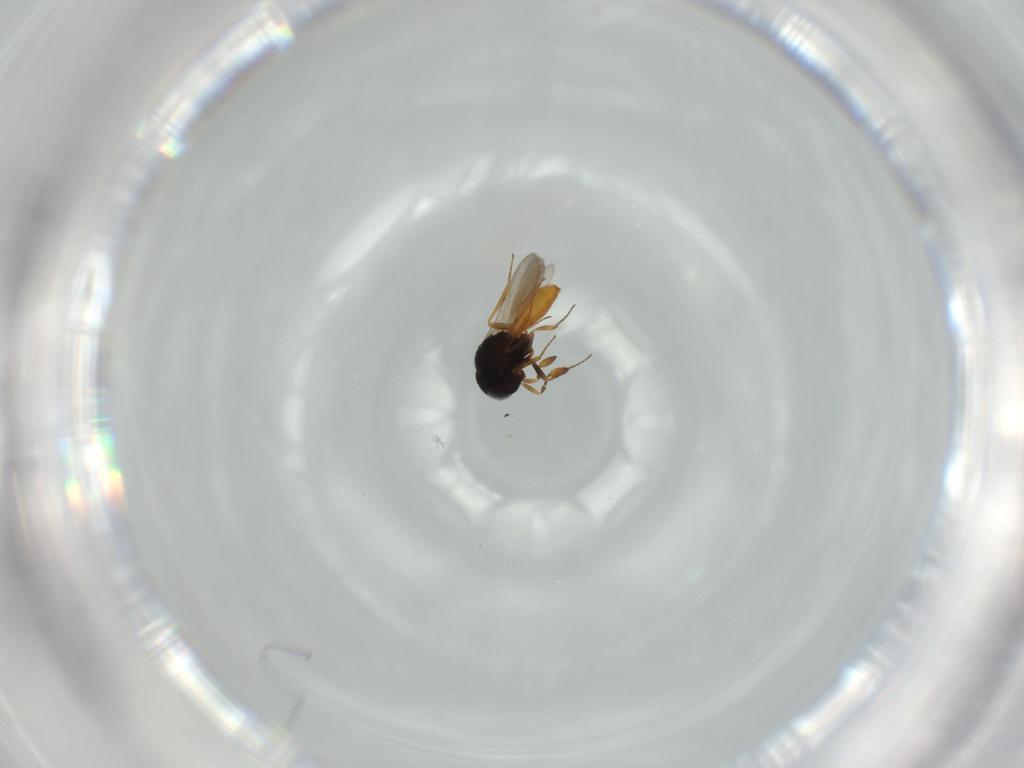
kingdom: Animalia
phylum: Arthropoda
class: Insecta
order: Hymenoptera
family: Scelionidae
